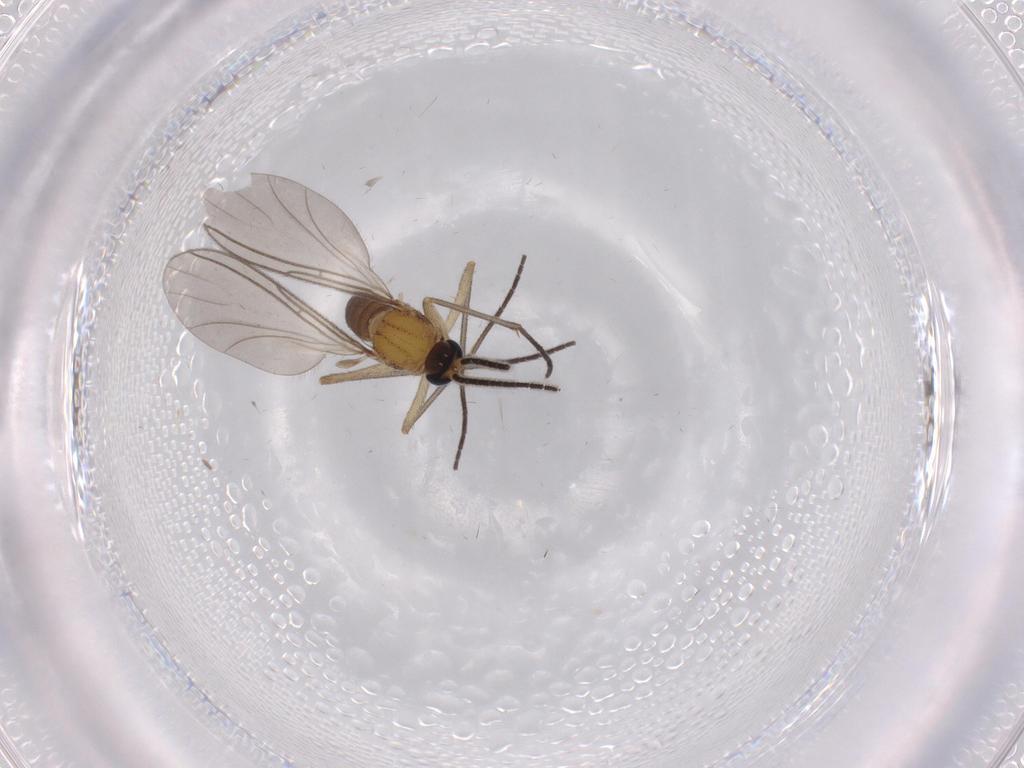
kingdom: Animalia
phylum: Arthropoda
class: Insecta
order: Diptera
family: Sciaridae
